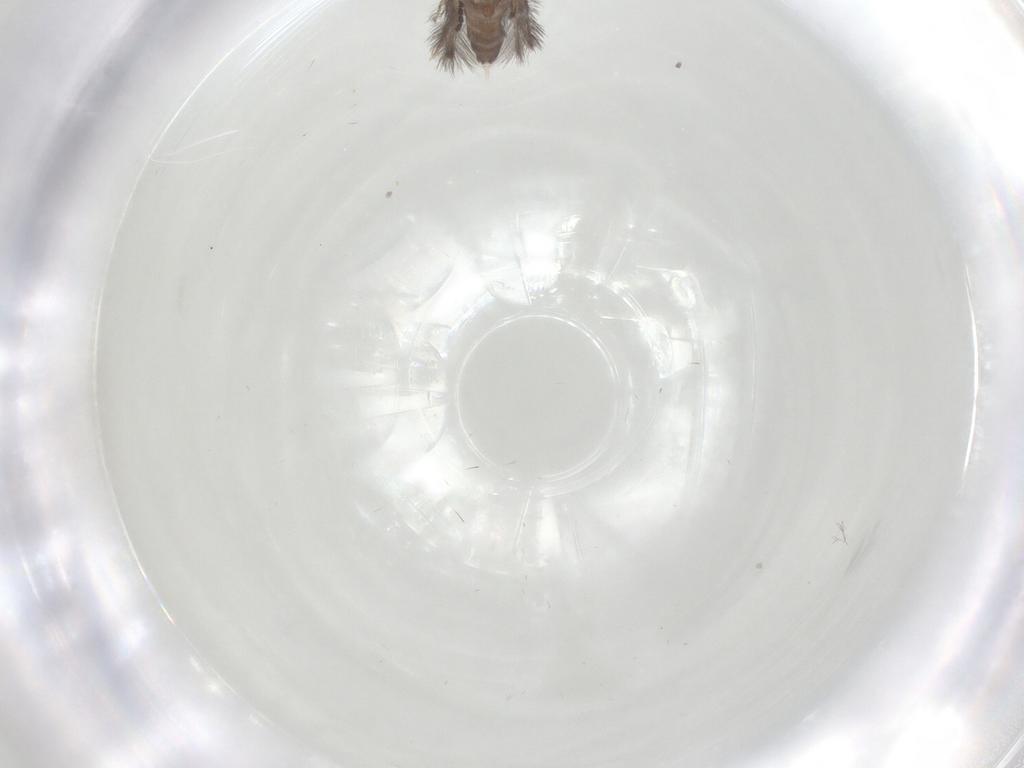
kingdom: Animalia
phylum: Arthropoda
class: Insecta
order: Trichoptera
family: Hydroptilidae
